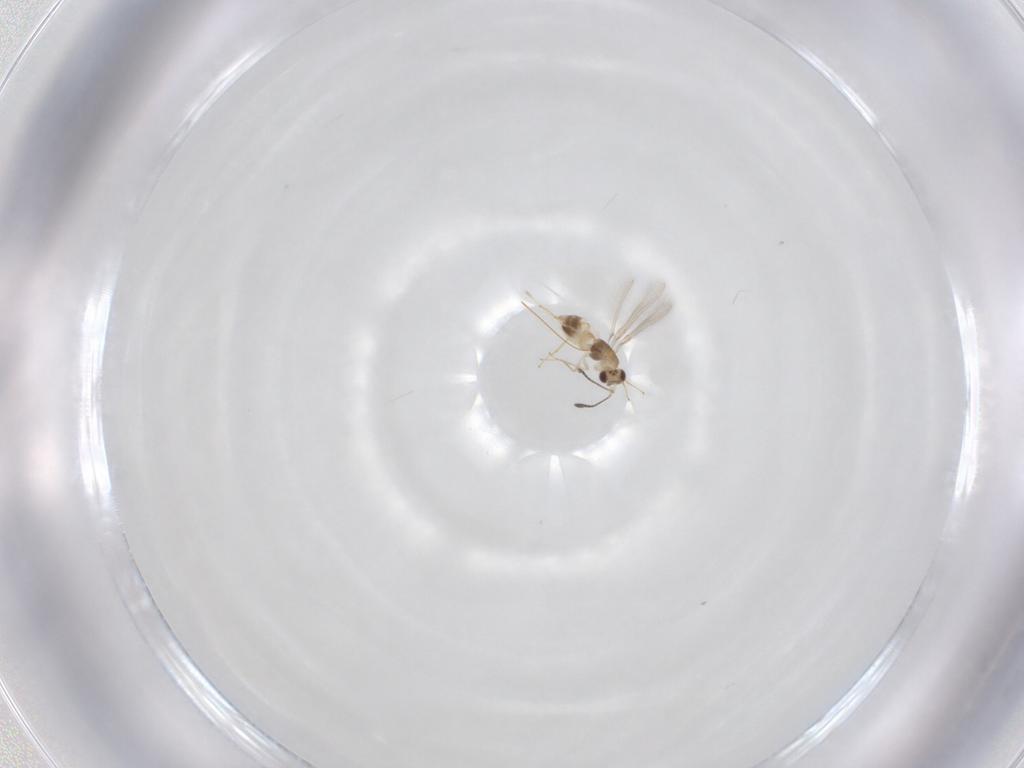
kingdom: Animalia
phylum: Arthropoda
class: Insecta
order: Hymenoptera
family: Mymaridae
